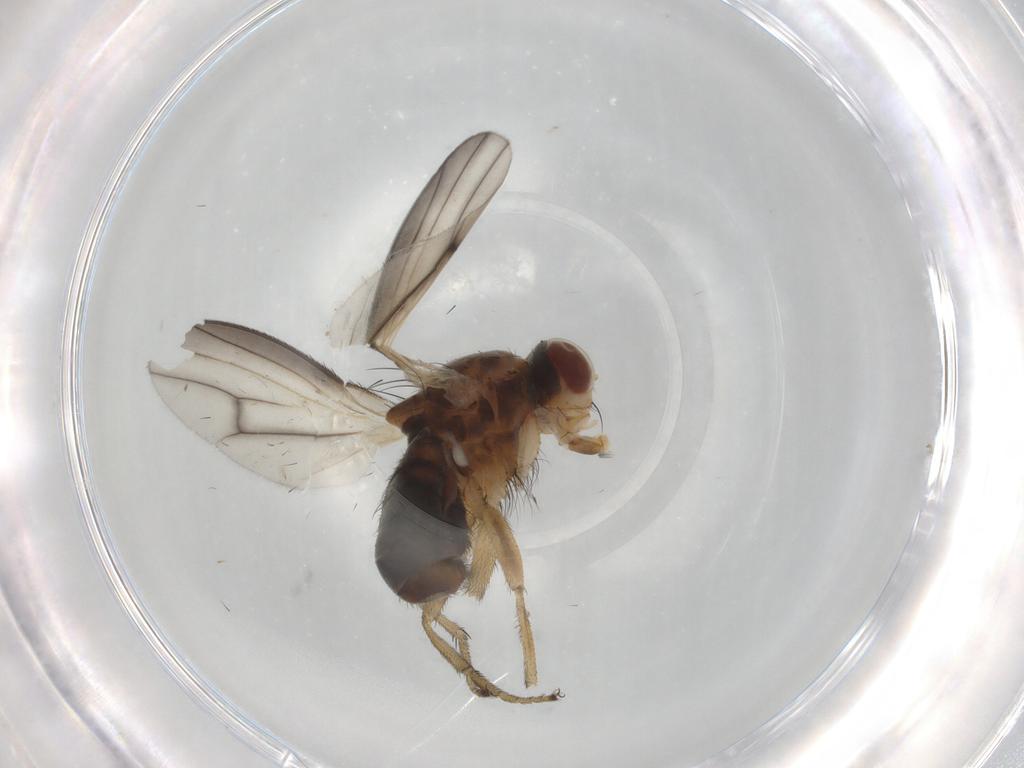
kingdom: Animalia
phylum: Arthropoda
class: Insecta
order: Diptera
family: Heleomyzidae
